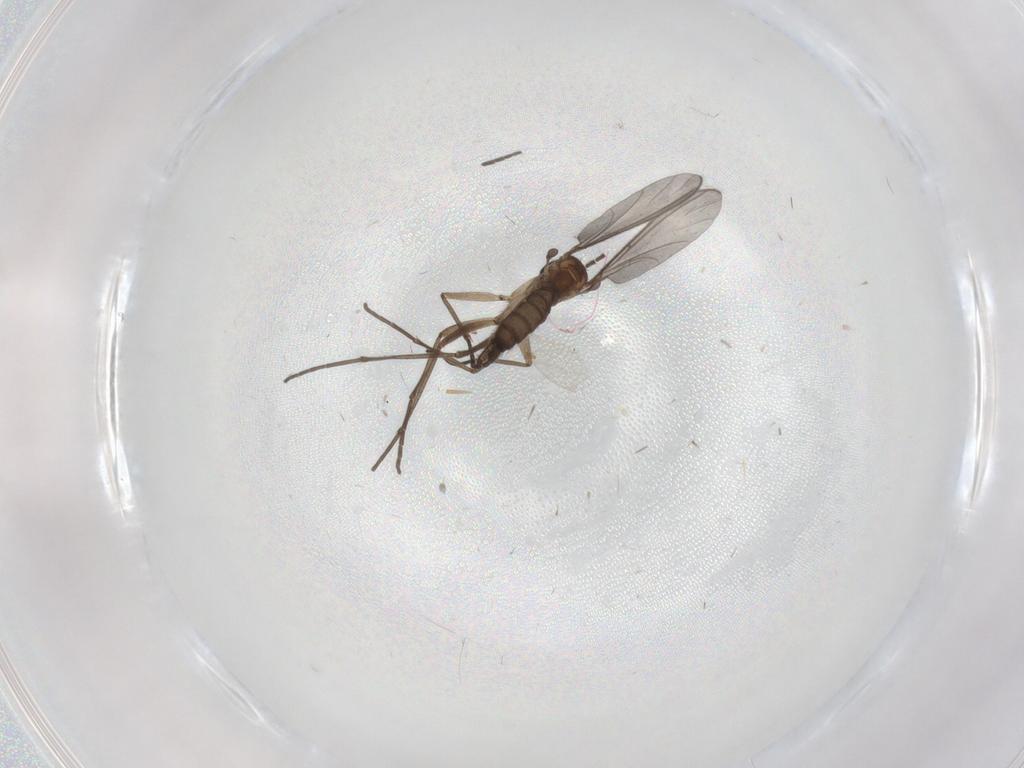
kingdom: Animalia
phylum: Arthropoda
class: Insecta
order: Diptera
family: Sciaridae
